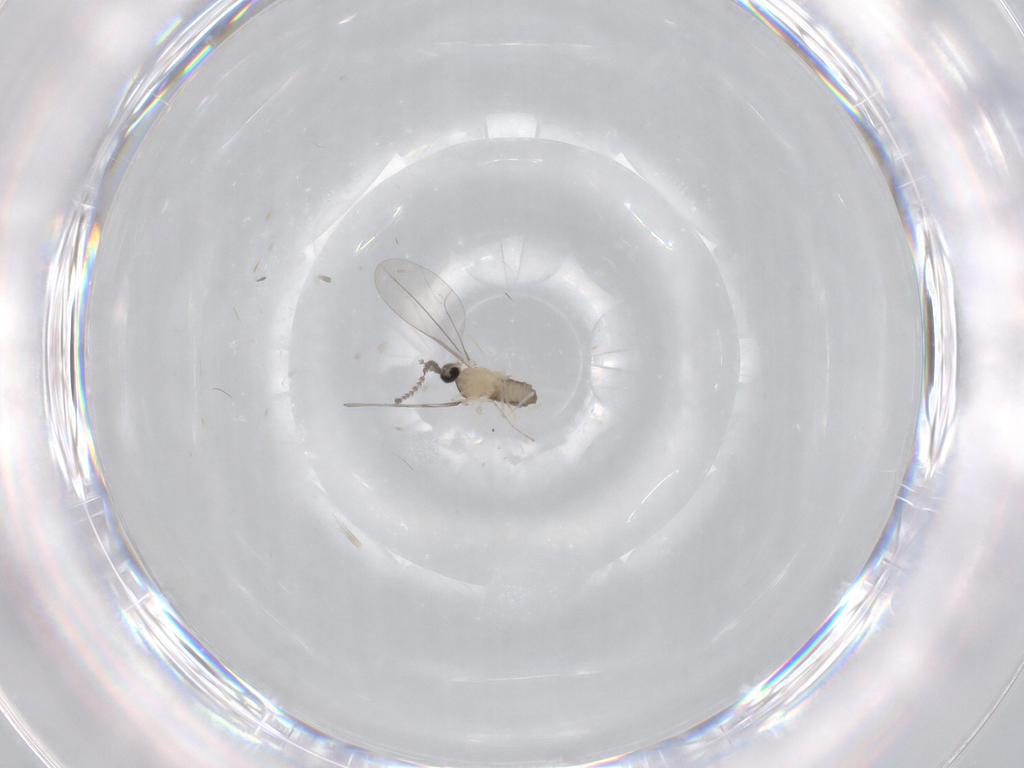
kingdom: Animalia
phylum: Arthropoda
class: Insecta
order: Diptera
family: Cecidomyiidae
